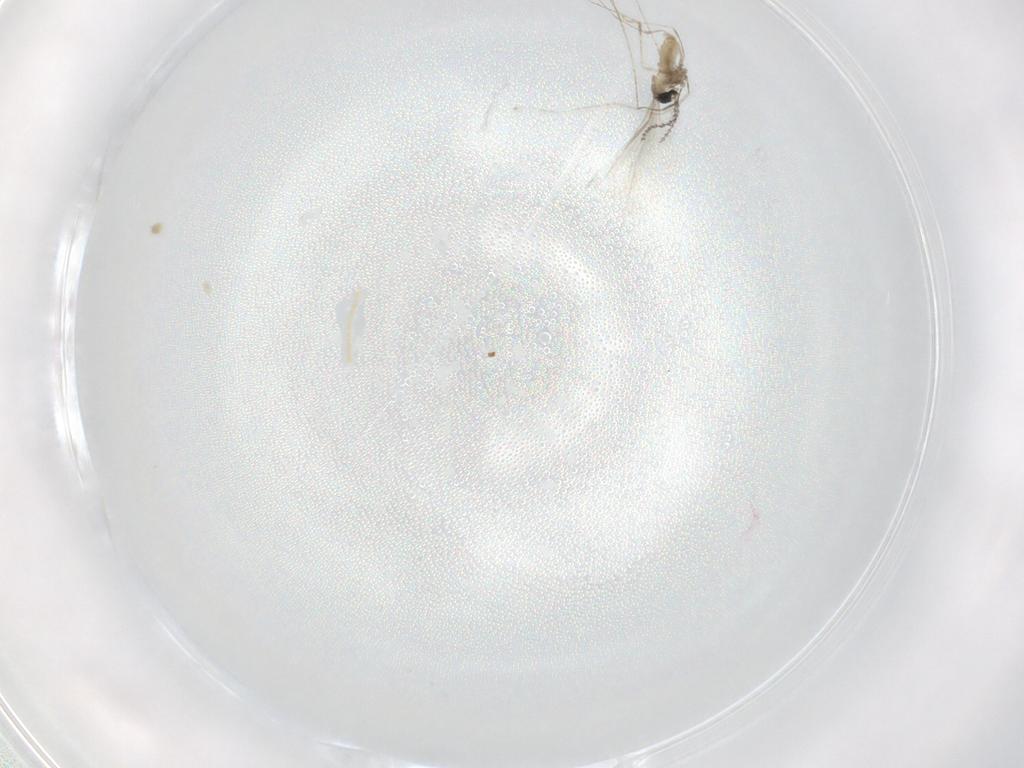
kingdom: Animalia
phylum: Arthropoda
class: Insecta
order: Diptera
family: Cecidomyiidae
